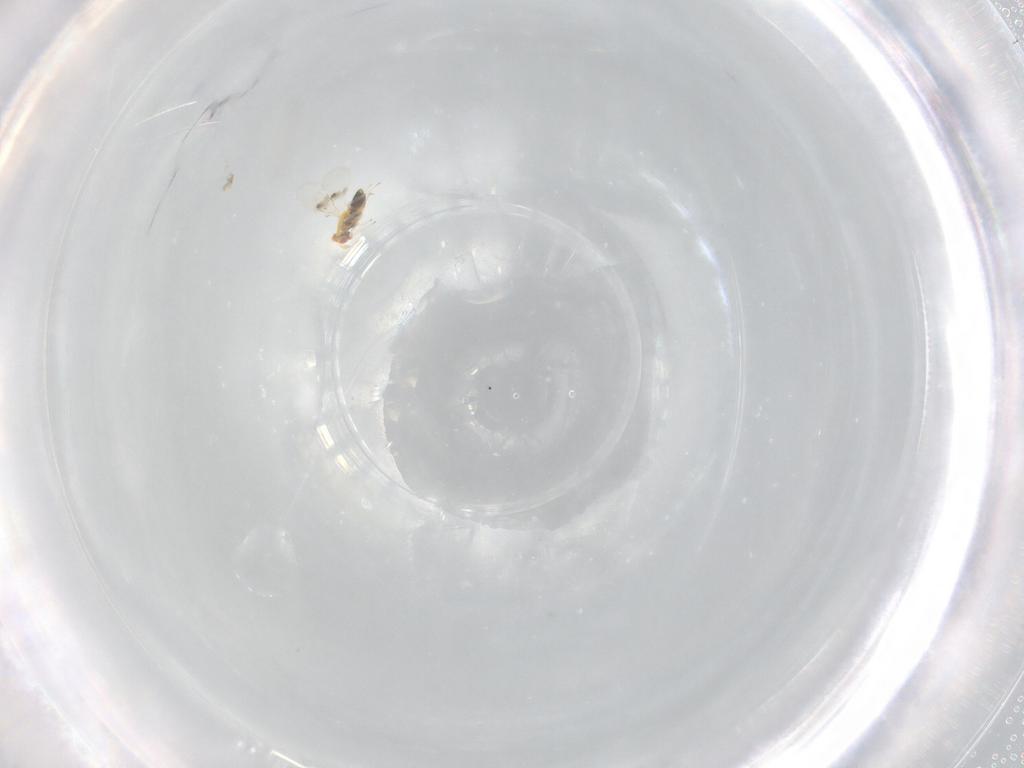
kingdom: Animalia
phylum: Arthropoda
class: Insecta
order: Hymenoptera
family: Trichogrammatidae
